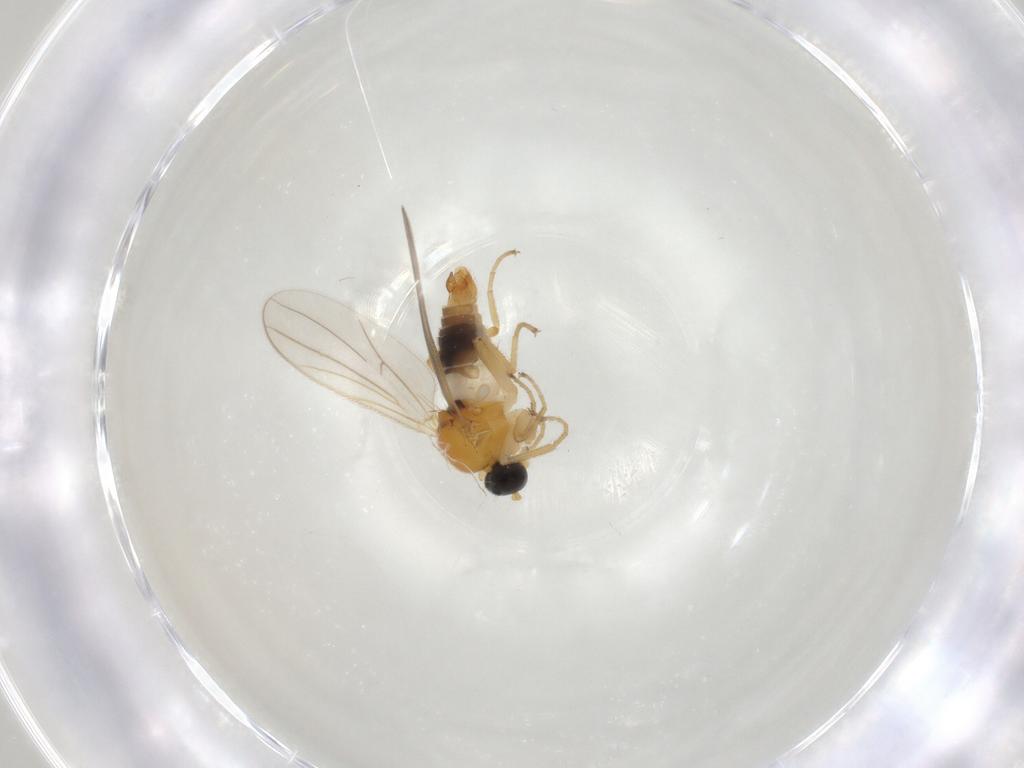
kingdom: Animalia
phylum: Arthropoda
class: Insecta
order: Diptera
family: Hybotidae
